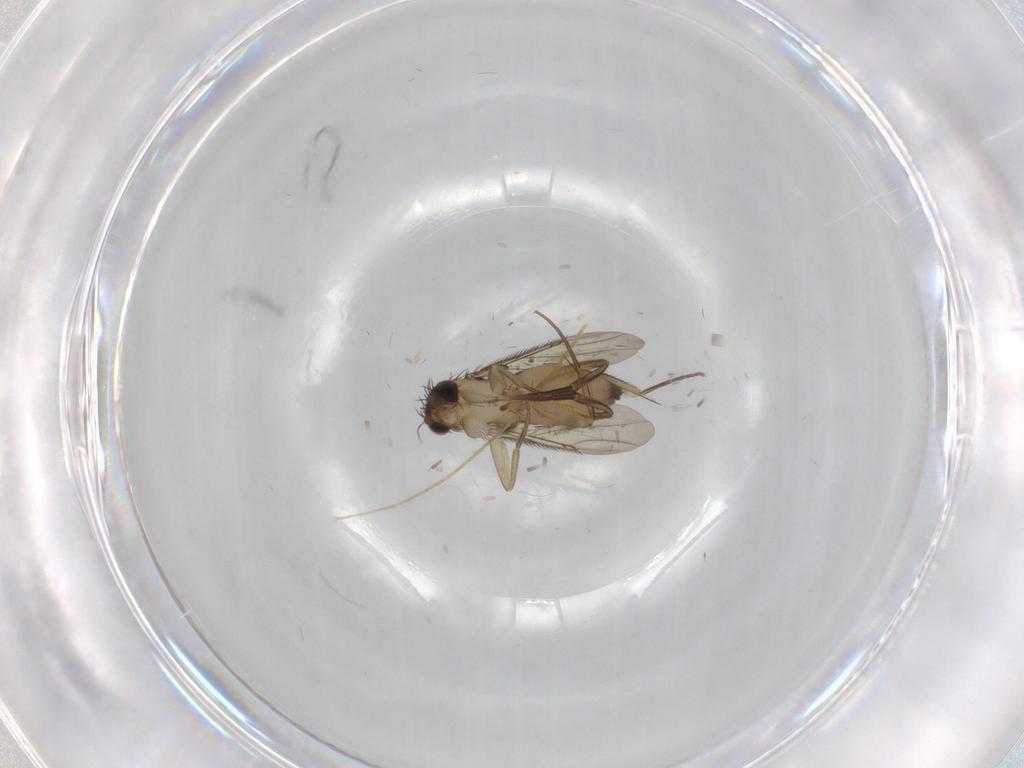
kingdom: Animalia
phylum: Arthropoda
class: Insecta
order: Diptera
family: Phoridae
